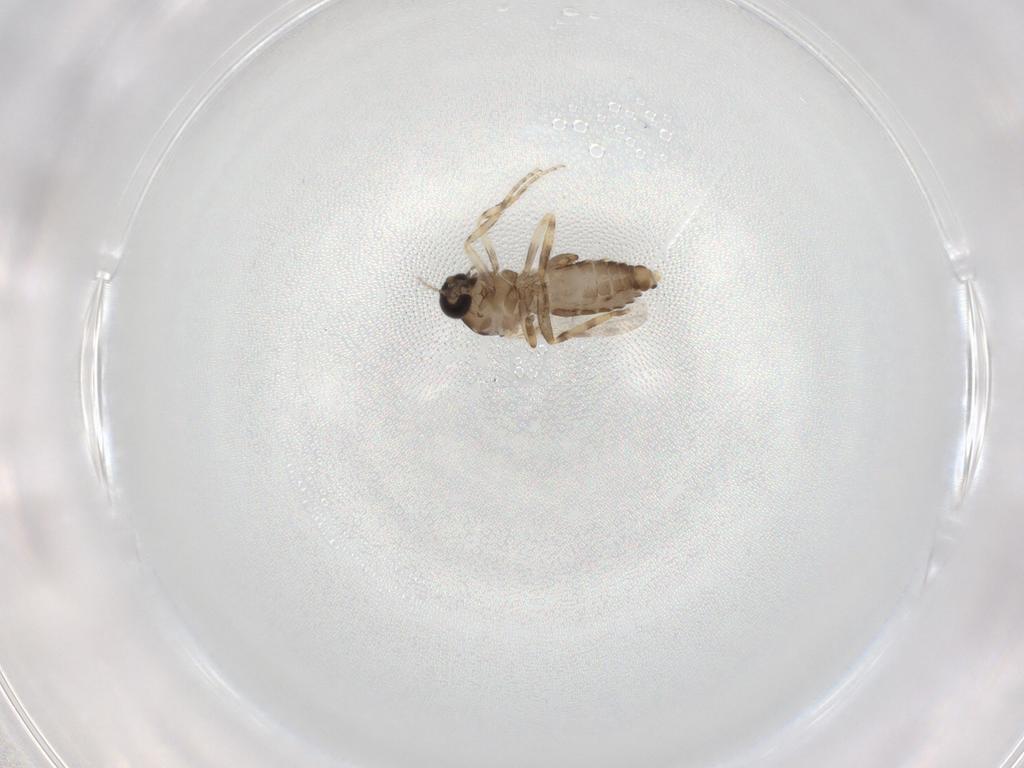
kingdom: Animalia
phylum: Arthropoda
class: Insecta
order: Diptera
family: Ceratopogonidae
